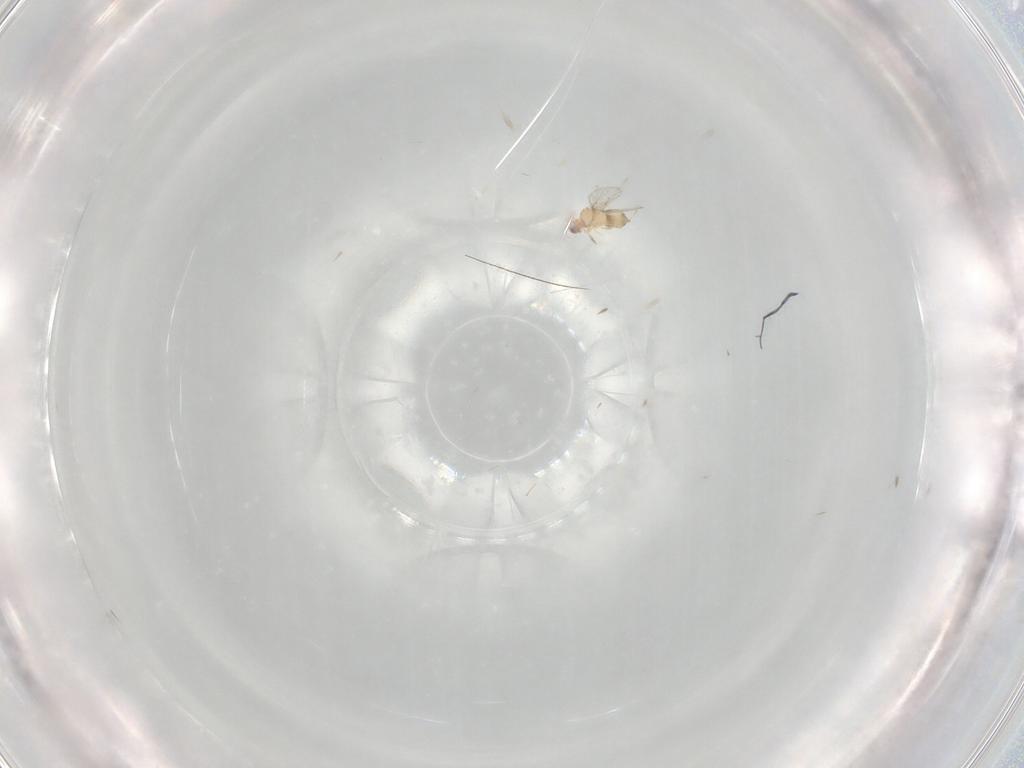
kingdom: Animalia
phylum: Arthropoda
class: Insecta
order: Hymenoptera
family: Trichogrammatidae
